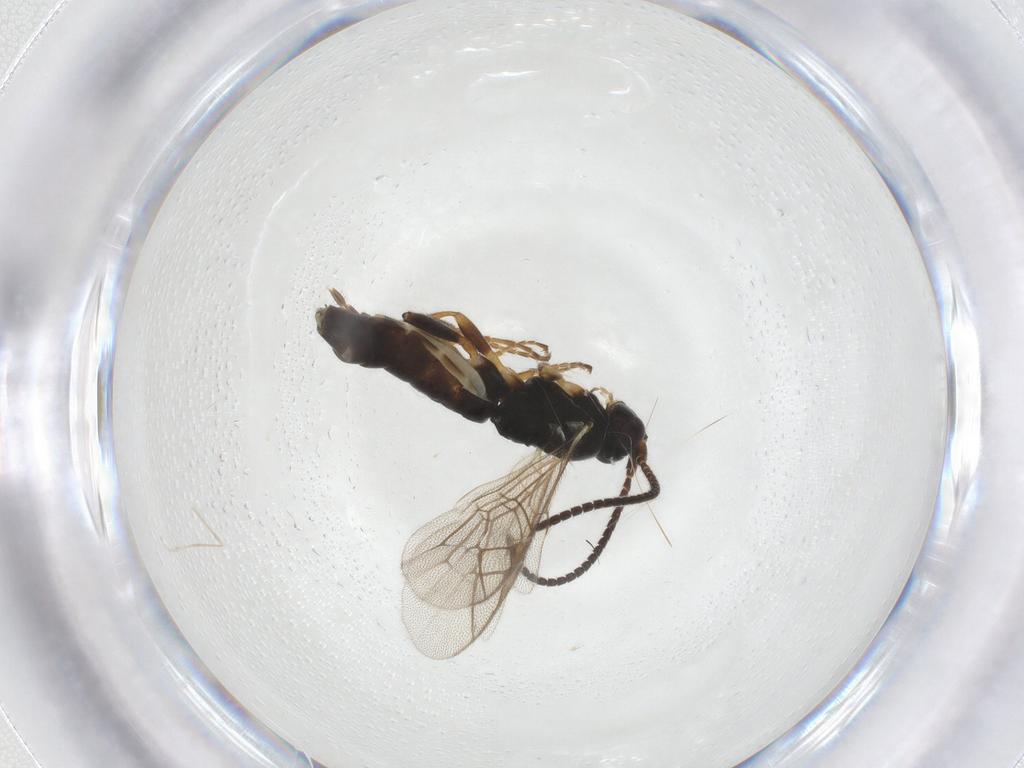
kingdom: Animalia
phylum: Arthropoda
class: Insecta
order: Hymenoptera
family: Ichneumonidae
